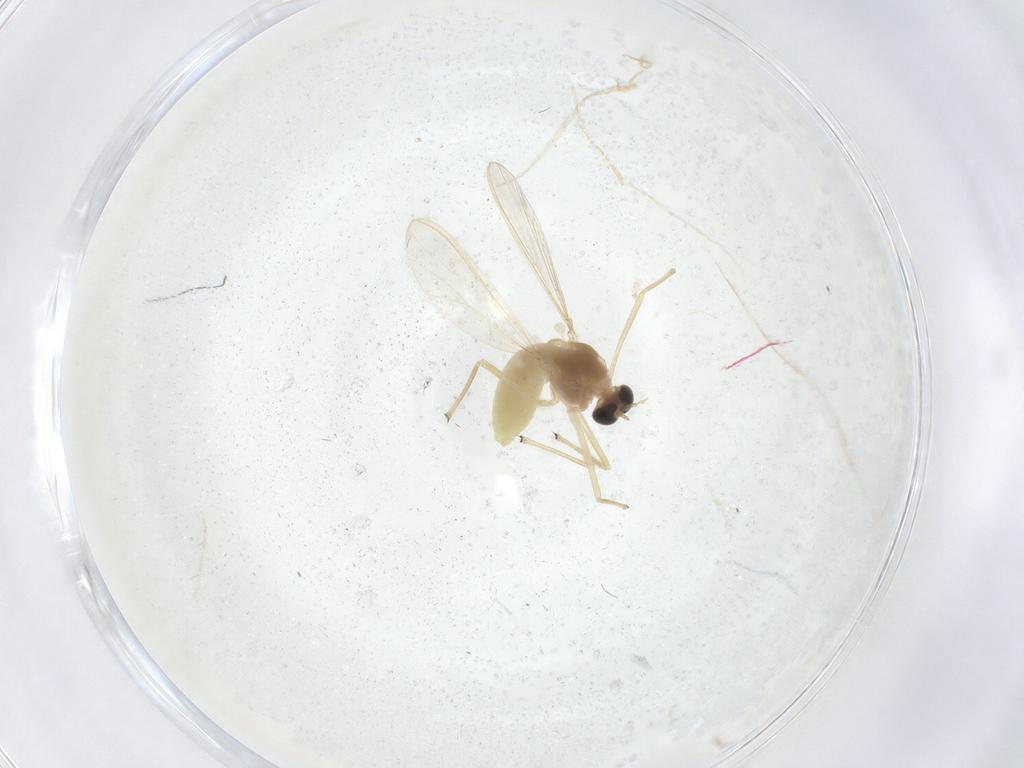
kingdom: Animalia
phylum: Arthropoda
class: Insecta
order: Diptera
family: Chironomidae
